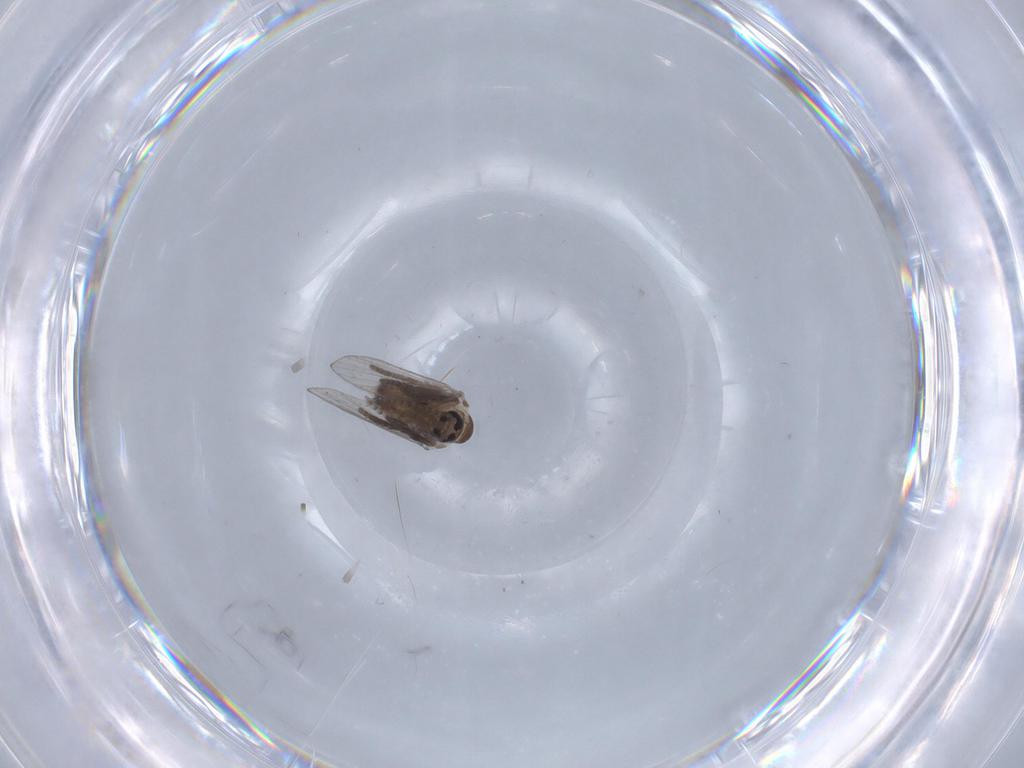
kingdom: Animalia
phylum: Arthropoda
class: Insecta
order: Diptera
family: Psychodidae
